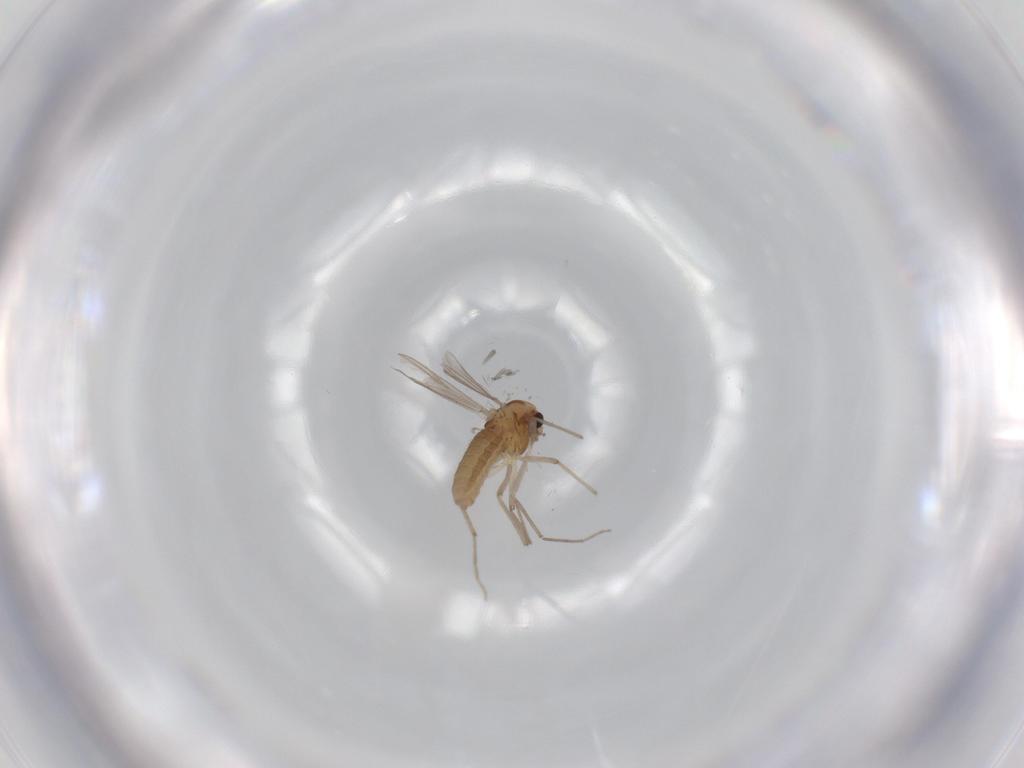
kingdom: Animalia
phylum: Arthropoda
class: Insecta
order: Diptera
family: Chironomidae
